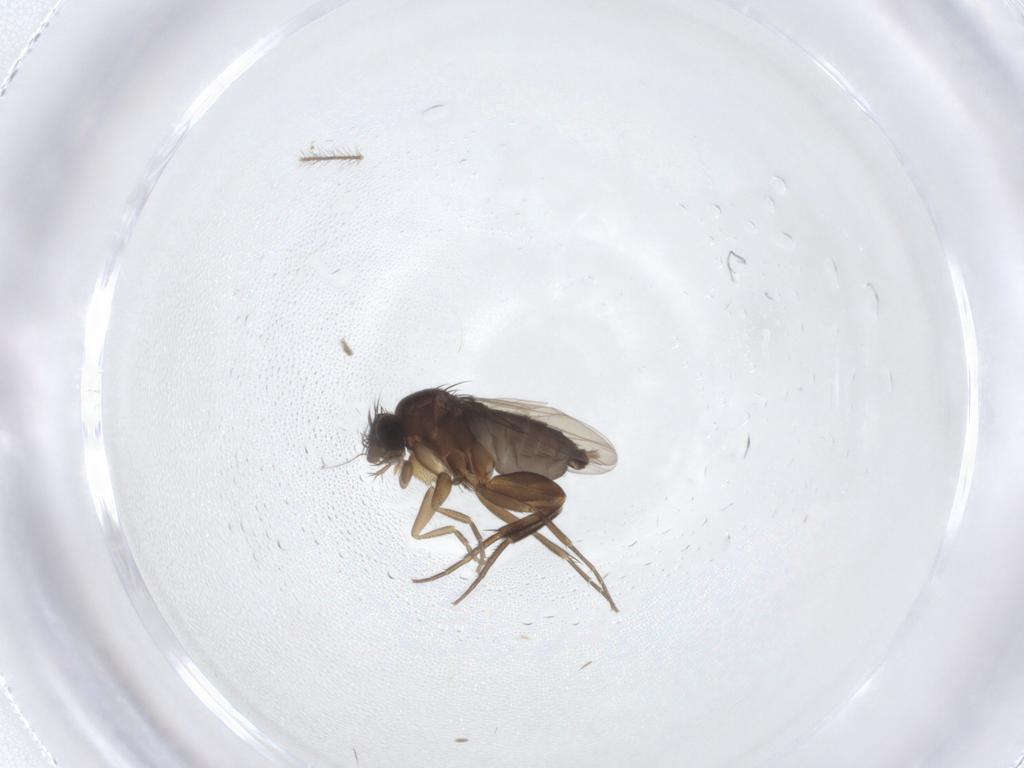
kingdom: Animalia
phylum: Arthropoda
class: Insecta
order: Diptera
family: Phoridae
